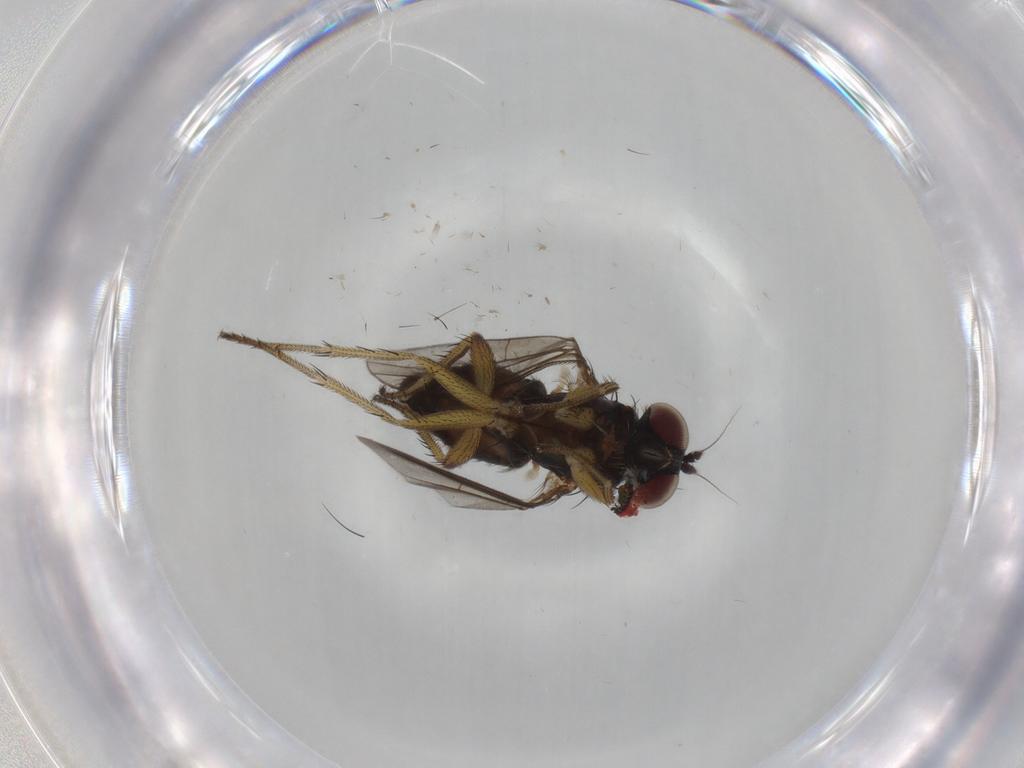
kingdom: Animalia
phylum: Arthropoda
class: Insecta
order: Diptera
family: Dolichopodidae
